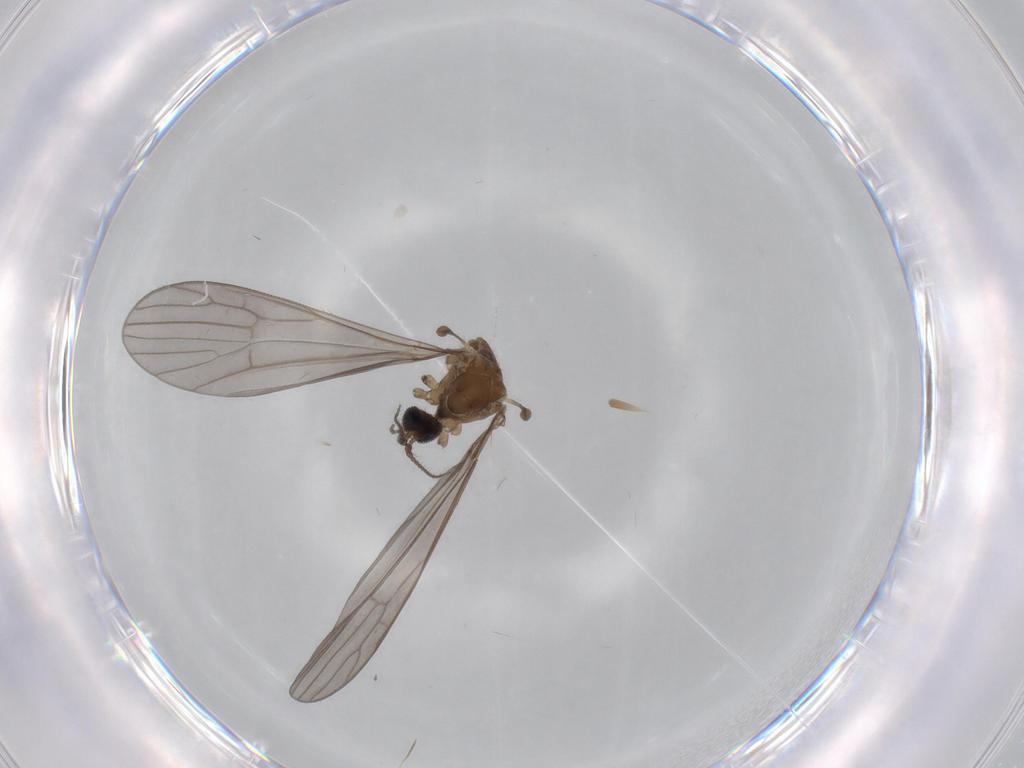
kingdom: Animalia
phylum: Arthropoda
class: Insecta
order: Diptera
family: Limoniidae
